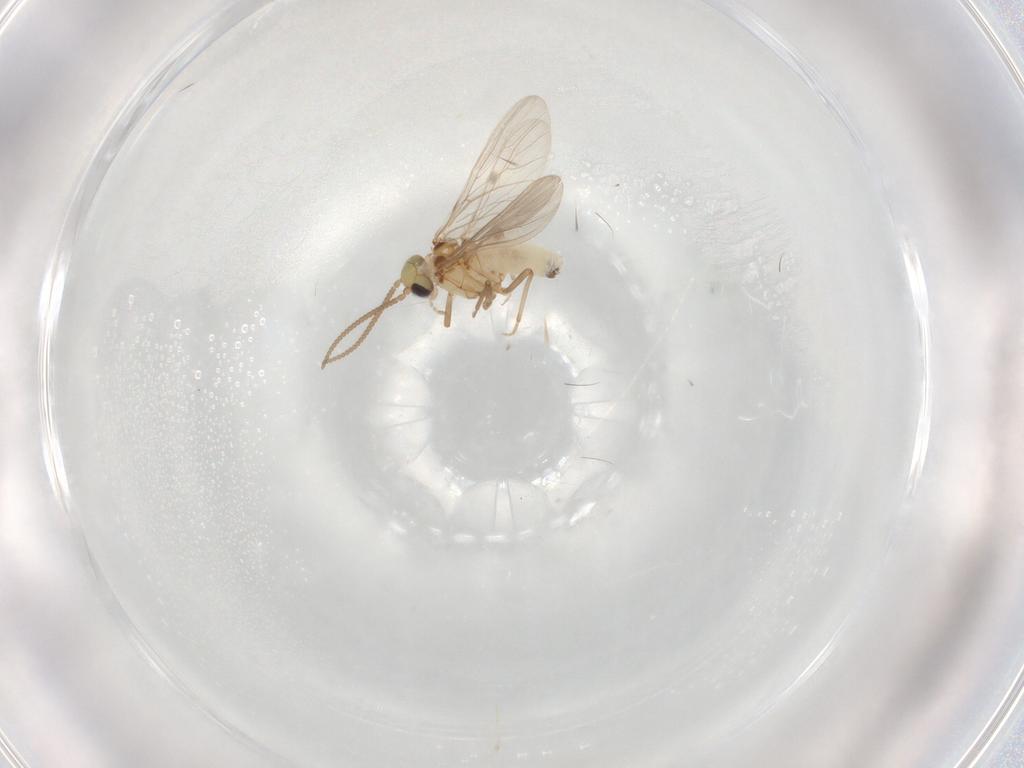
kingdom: Animalia
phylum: Arthropoda
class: Insecta
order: Neuroptera
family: Coniopterygidae
